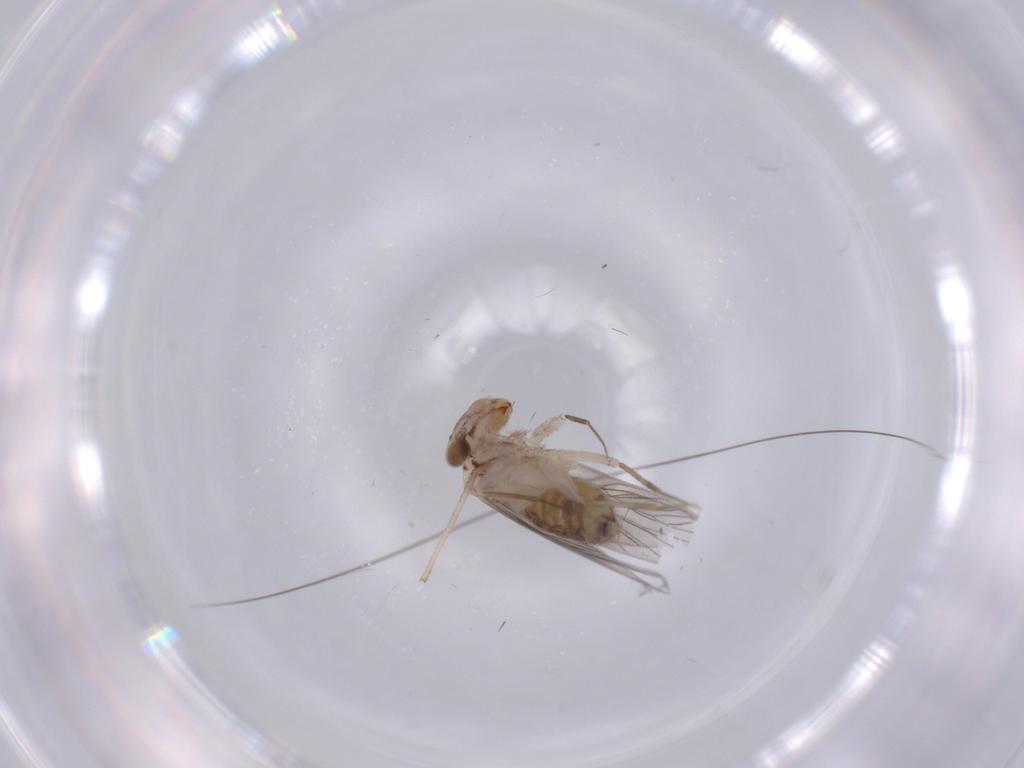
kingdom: Animalia
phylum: Arthropoda
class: Insecta
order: Psocodea
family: Lepidopsocidae
